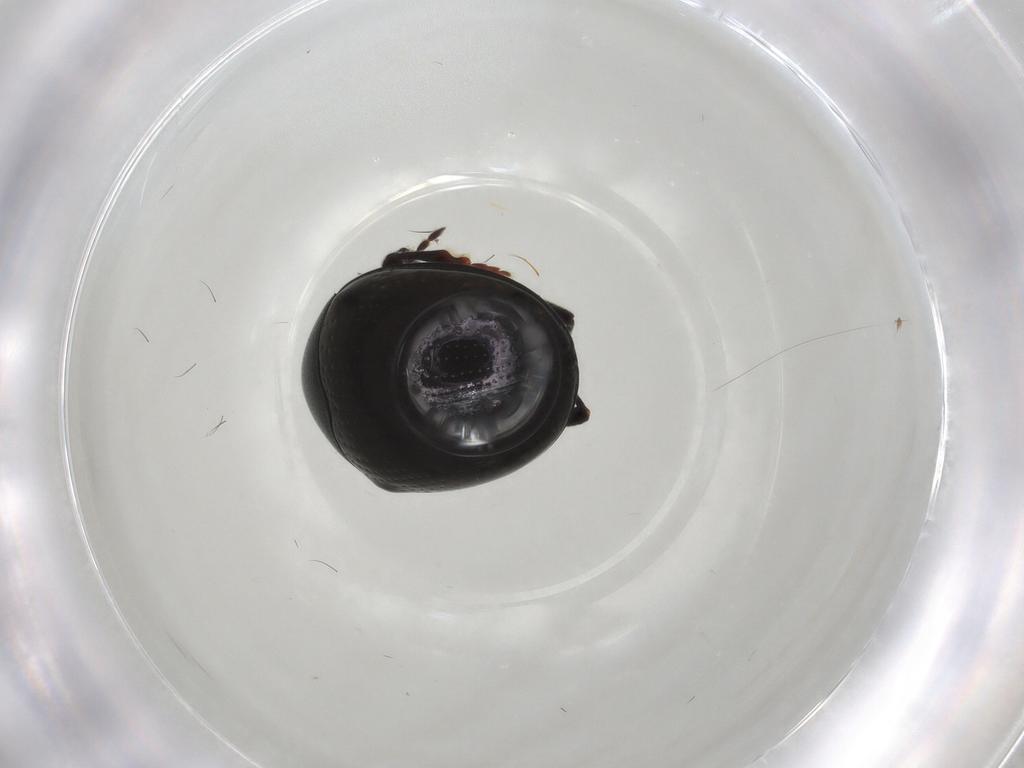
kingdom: Animalia
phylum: Arthropoda
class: Insecta
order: Coleoptera
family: Chrysomelidae
